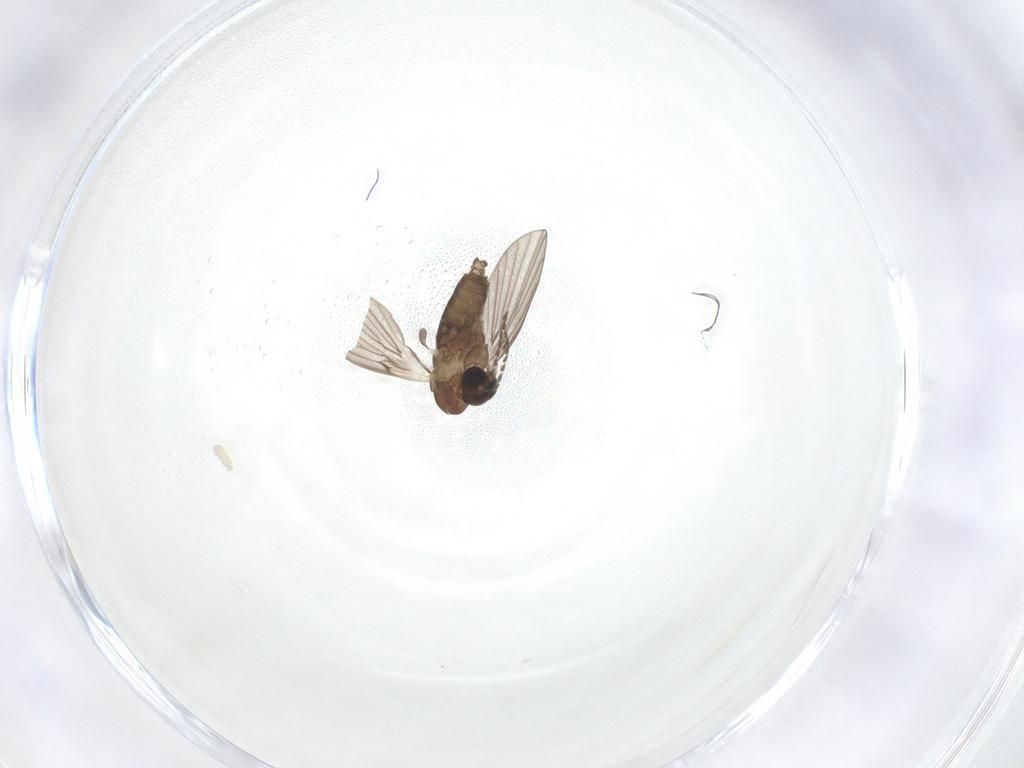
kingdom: Animalia
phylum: Arthropoda
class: Insecta
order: Diptera
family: Psychodidae
